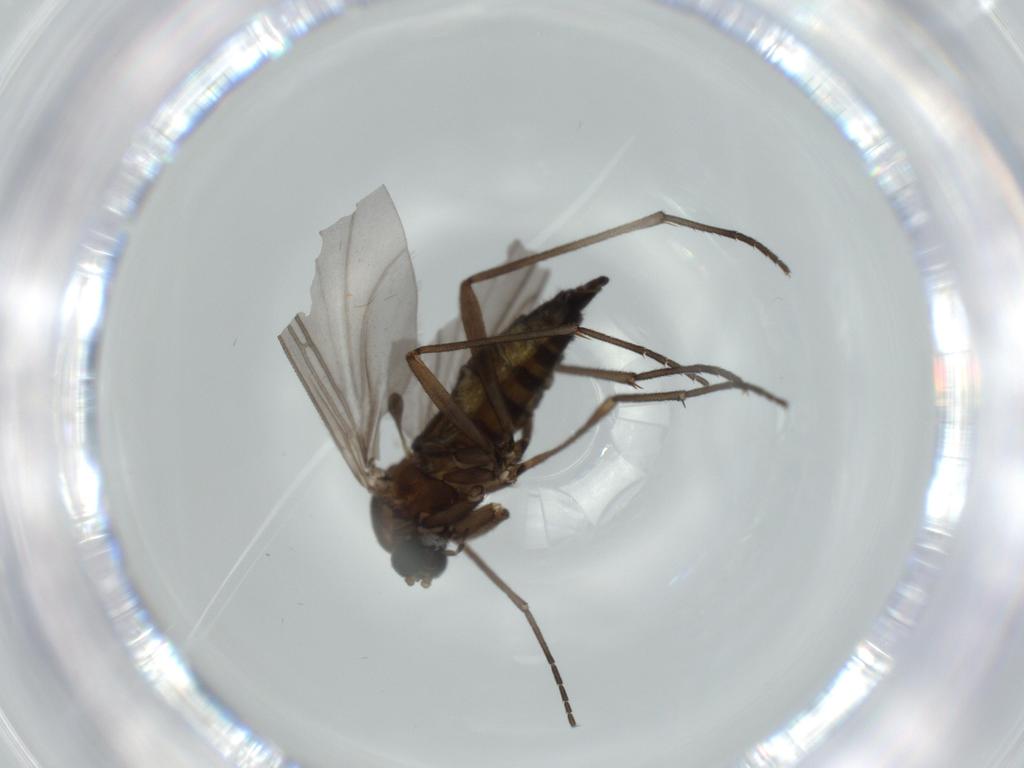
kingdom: Animalia
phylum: Arthropoda
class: Insecta
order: Diptera
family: Sciaridae
